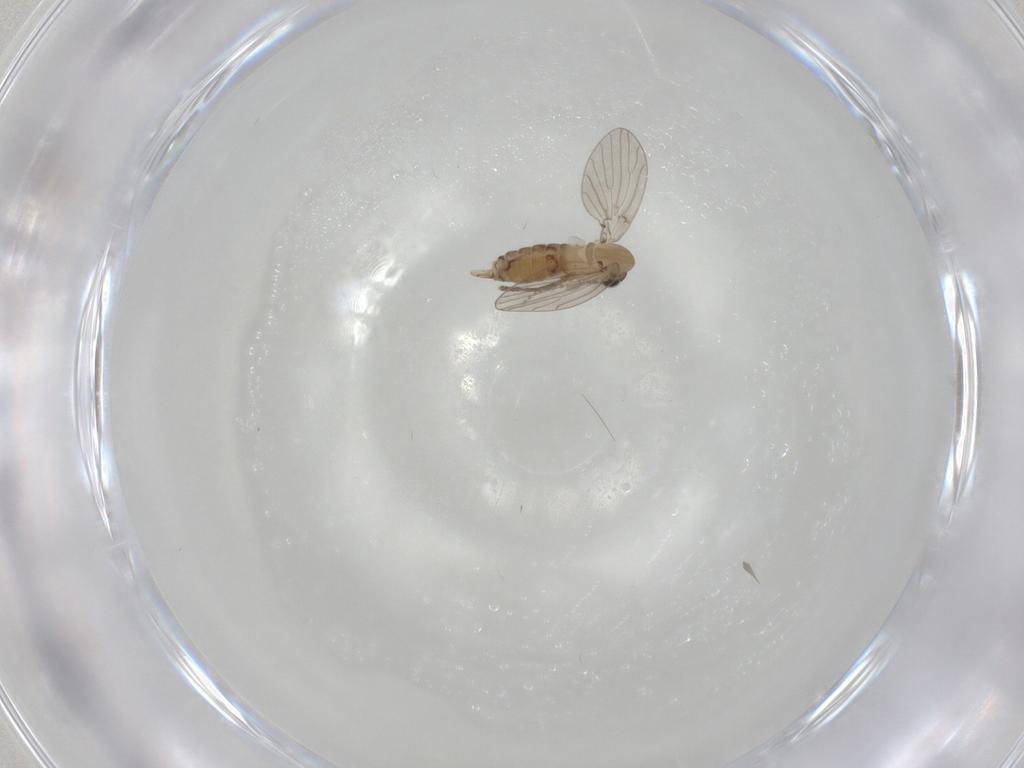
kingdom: Animalia
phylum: Arthropoda
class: Insecta
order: Diptera
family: Psychodidae
